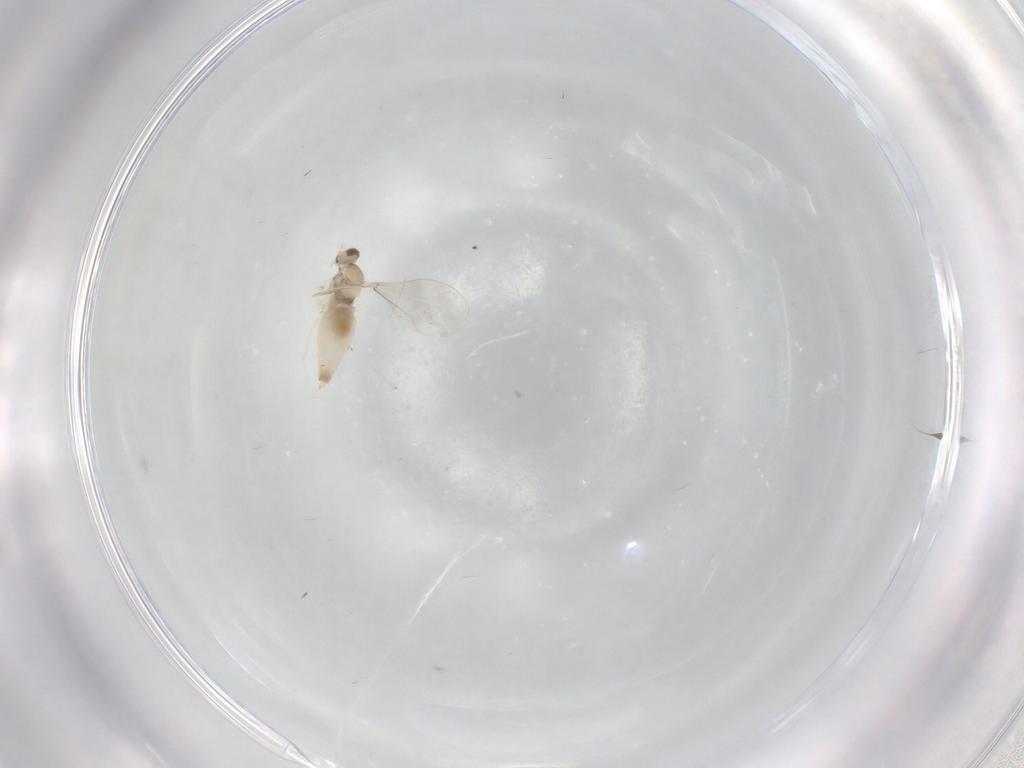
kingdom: Animalia
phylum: Arthropoda
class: Insecta
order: Diptera
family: Cecidomyiidae
